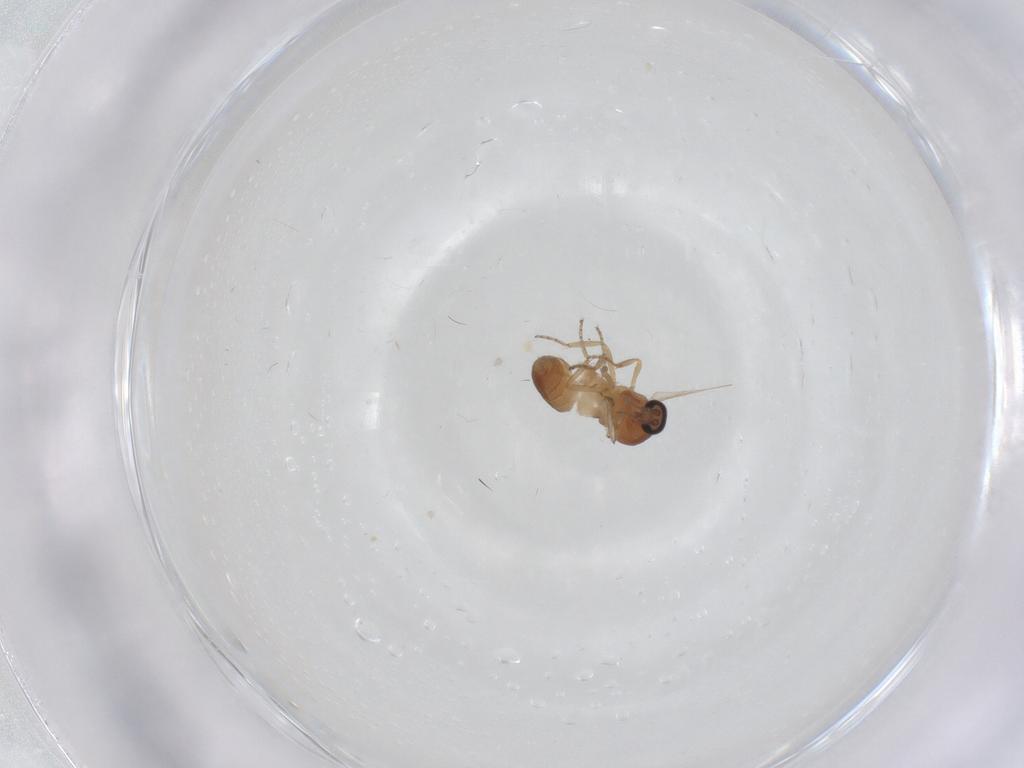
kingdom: Animalia
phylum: Arthropoda
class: Insecta
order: Diptera
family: Ceratopogonidae
